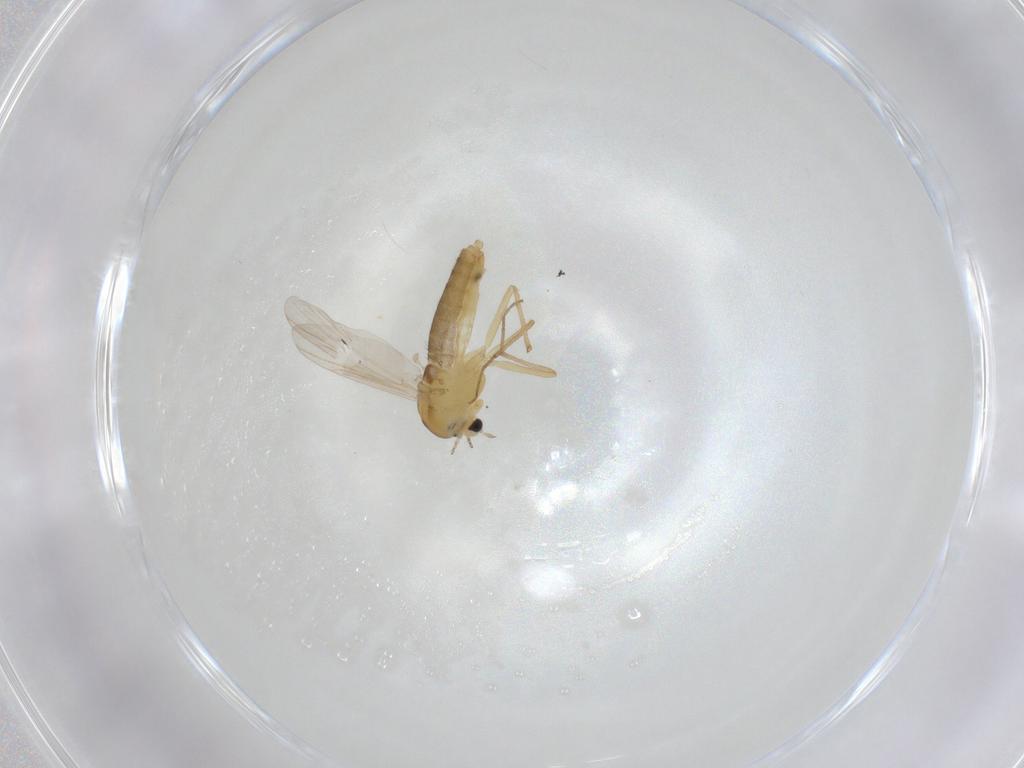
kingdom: Animalia
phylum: Arthropoda
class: Insecta
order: Diptera
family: Chironomidae
